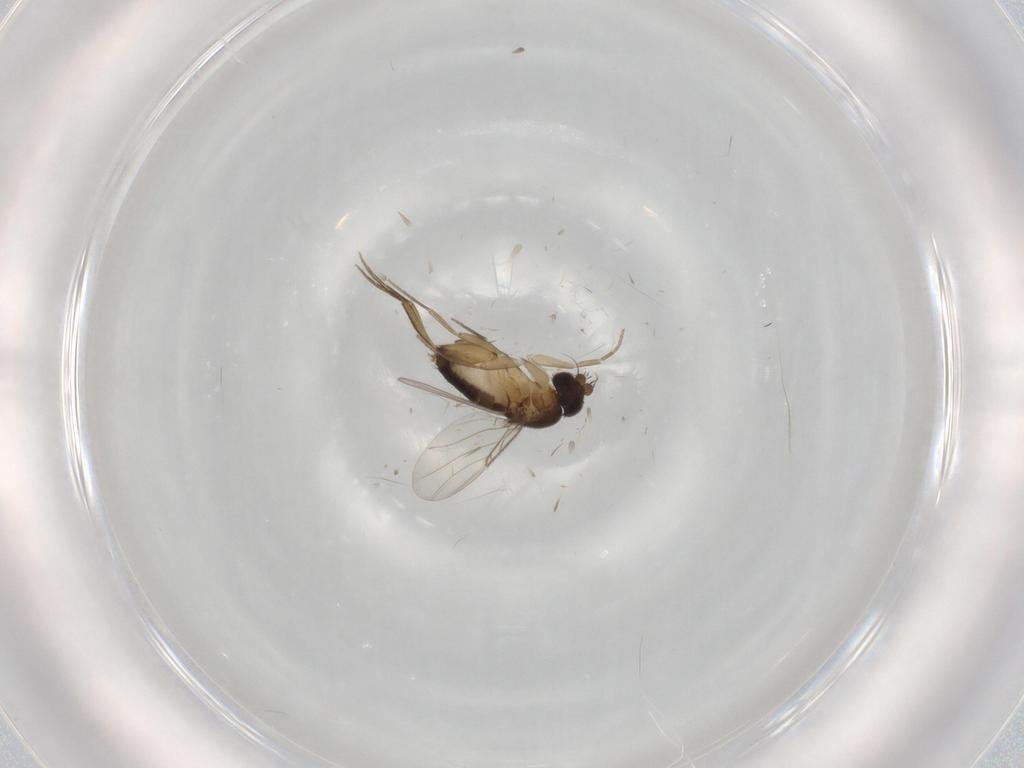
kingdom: Animalia
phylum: Arthropoda
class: Insecta
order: Diptera
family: Phoridae
